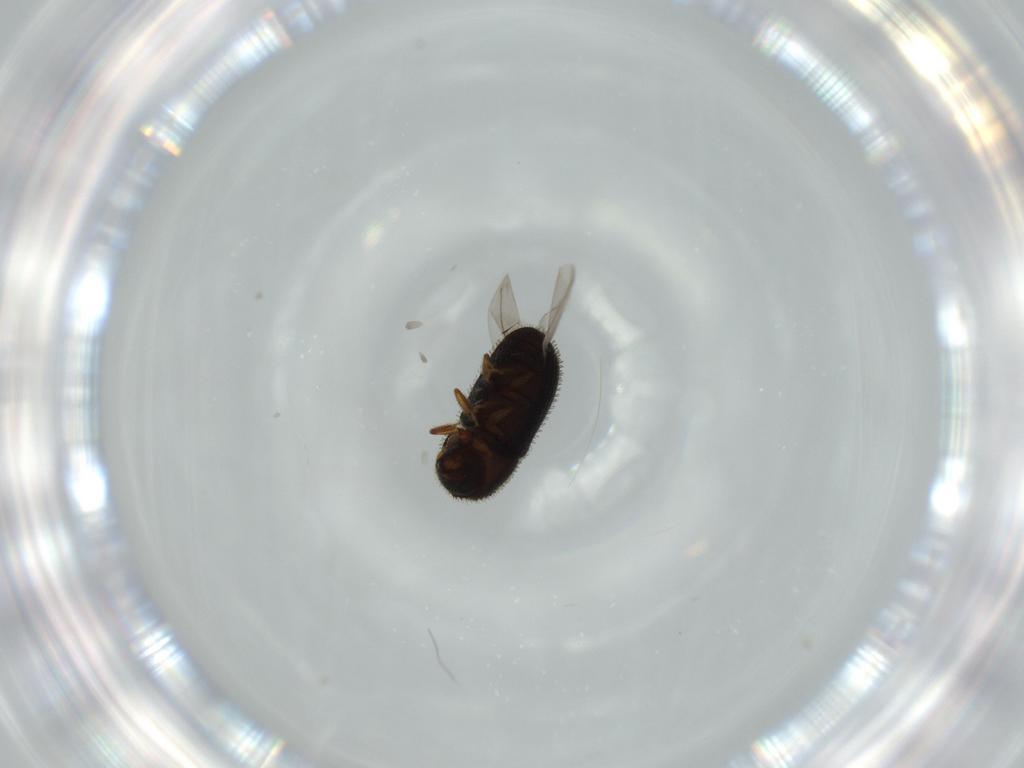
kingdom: Animalia
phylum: Arthropoda
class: Insecta
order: Coleoptera
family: Curculionidae
